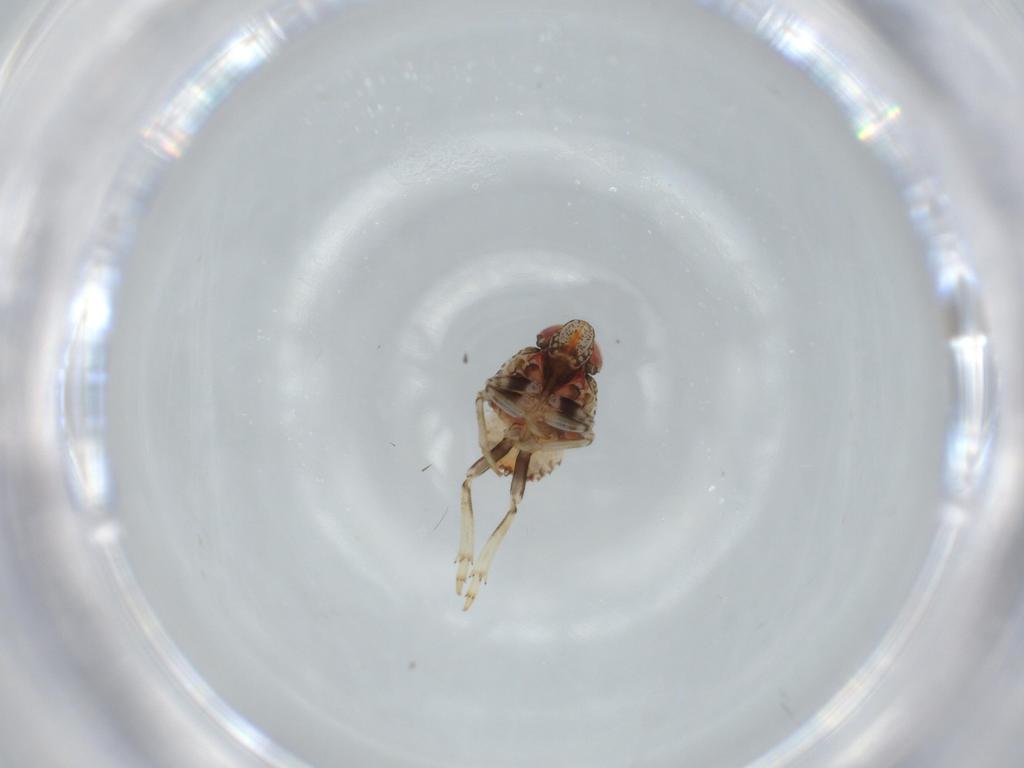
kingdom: Animalia
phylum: Arthropoda
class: Insecta
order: Hemiptera
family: Issidae
